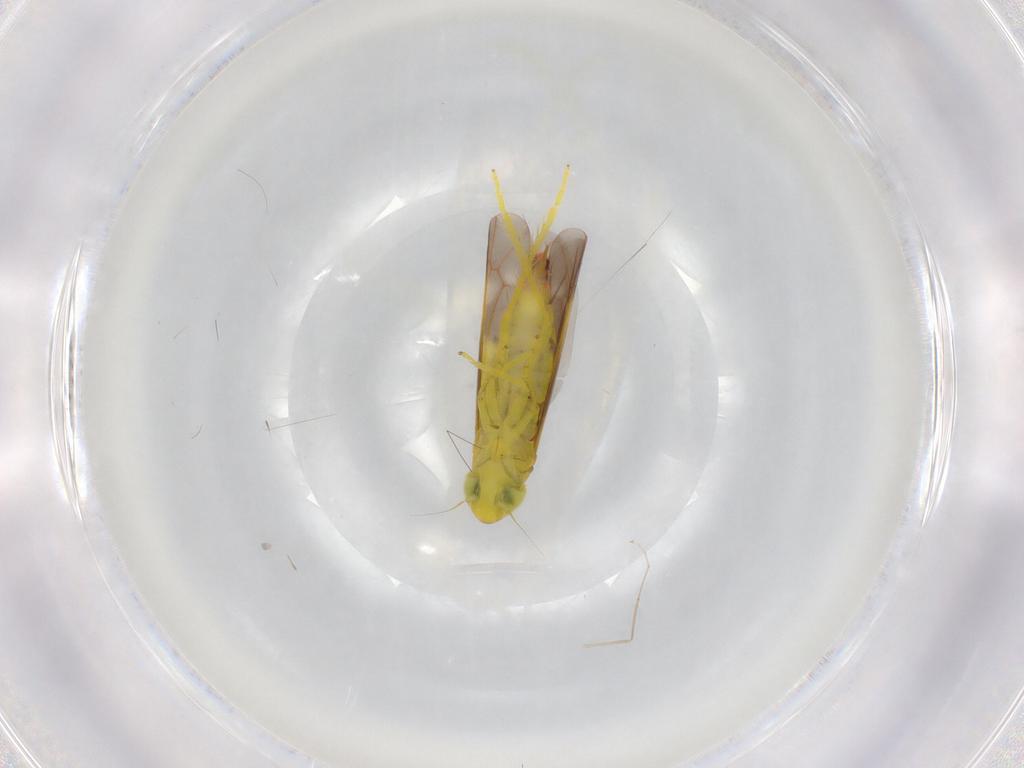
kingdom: Animalia
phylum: Arthropoda
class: Insecta
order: Hemiptera
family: Cicadellidae
